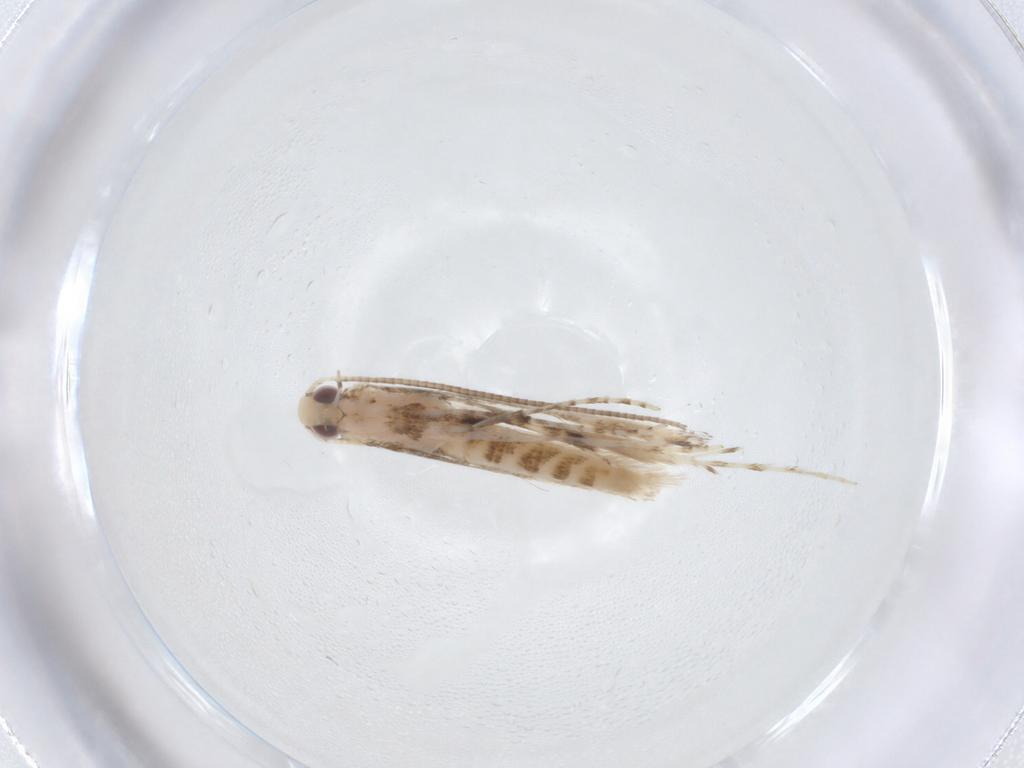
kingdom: Animalia
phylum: Arthropoda
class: Insecta
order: Lepidoptera
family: Gracillariidae
